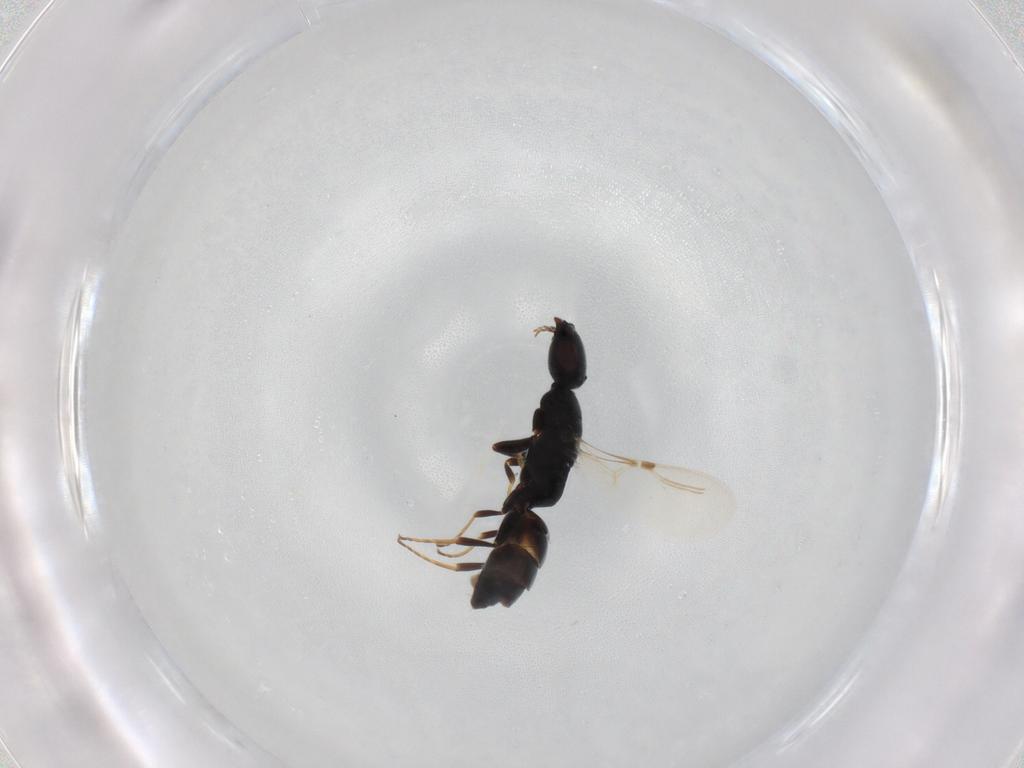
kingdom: Animalia
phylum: Arthropoda
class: Insecta
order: Hymenoptera
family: Bethylidae
